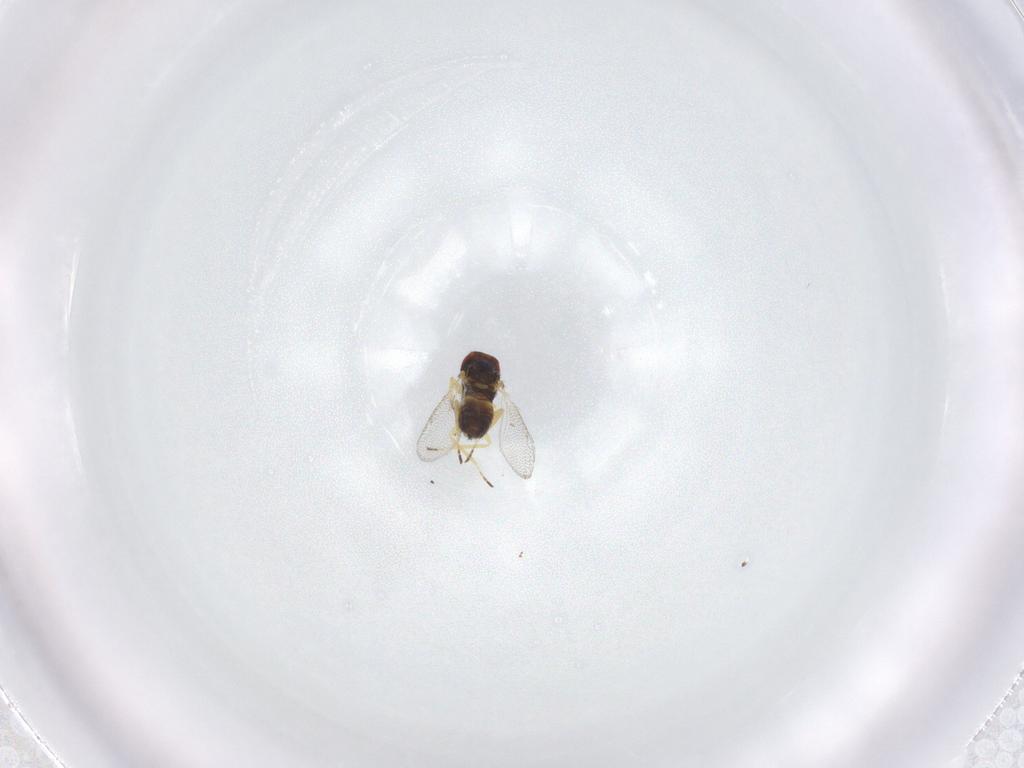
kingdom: Animalia
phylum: Arthropoda
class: Insecta
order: Hymenoptera
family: Eulophidae
